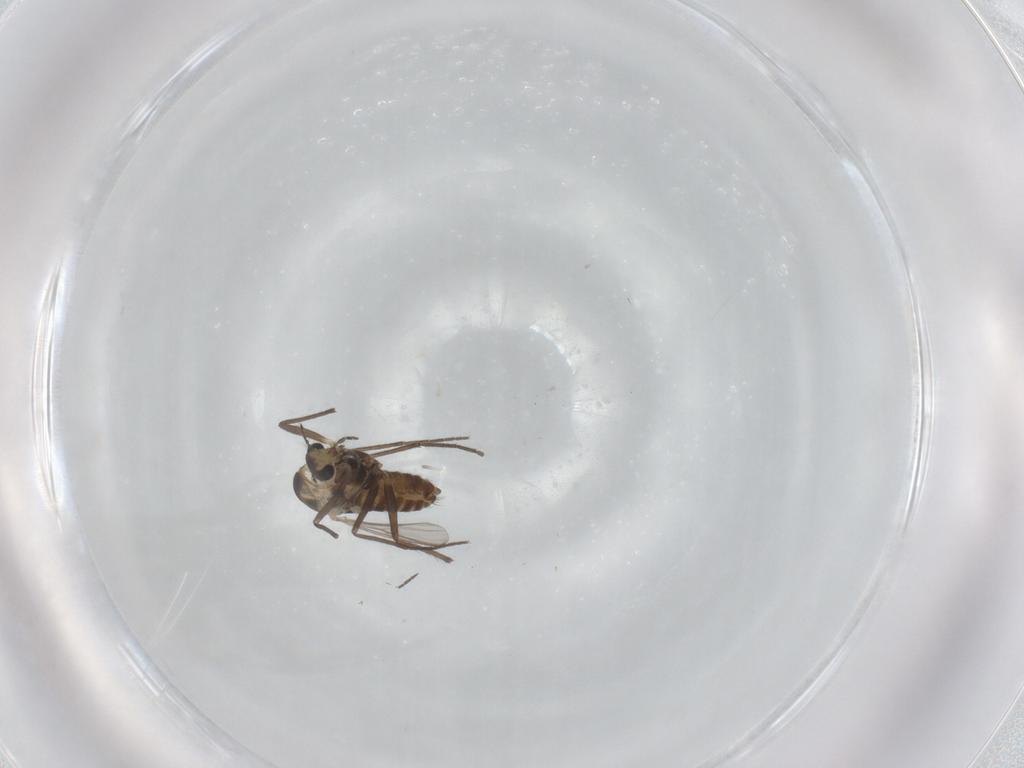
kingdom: Animalia
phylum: Arthropoda
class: Insecta
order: Diptera
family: Chironomidae
